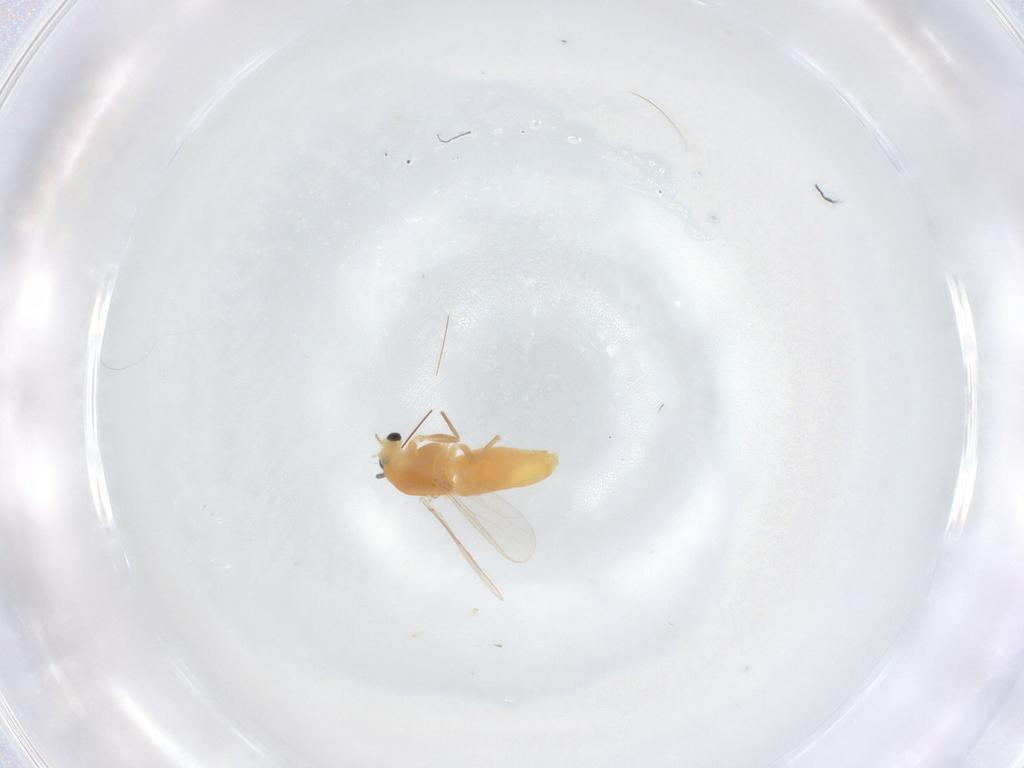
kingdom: Animalia
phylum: Arthropoda
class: Insecta
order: Diptera
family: Chironomidae
